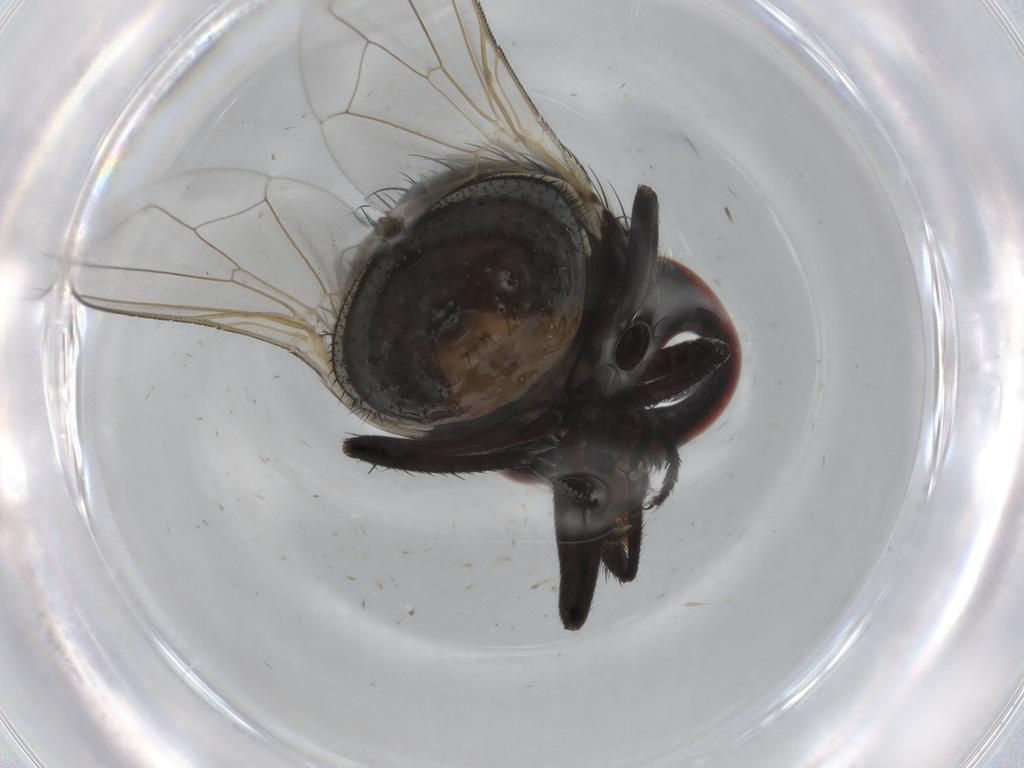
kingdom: Animalia
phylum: Arthropoda
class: Insecta
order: Diptera
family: Muscidae
